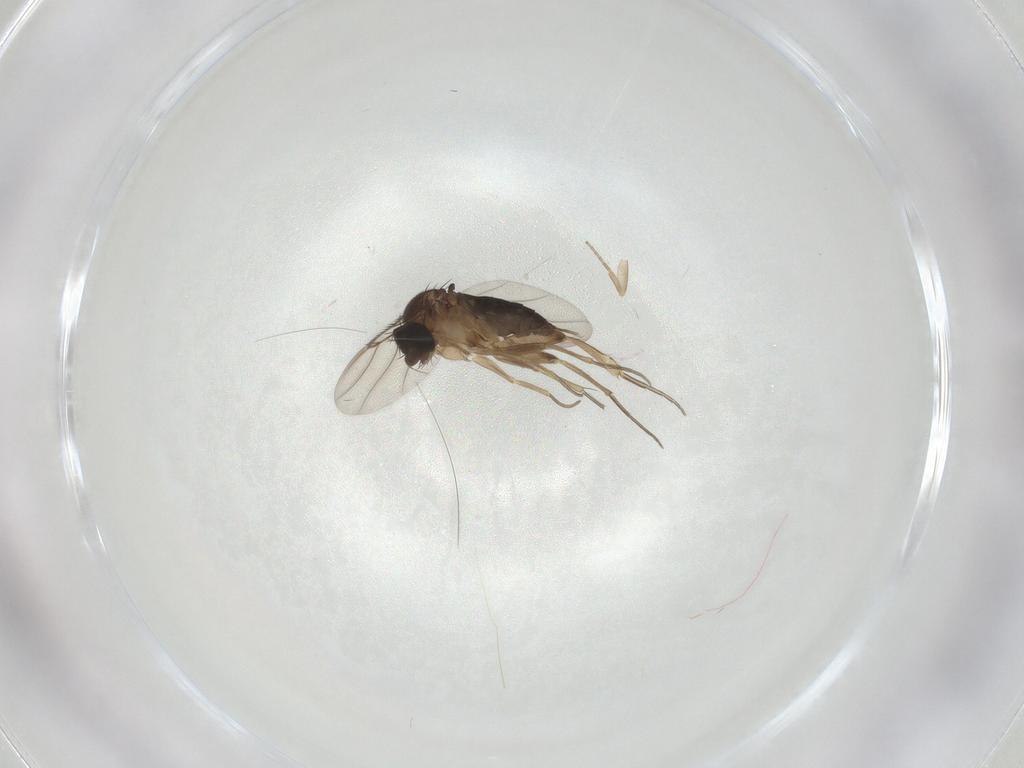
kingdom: Animalia
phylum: Arthropoda
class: Insecta
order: Diptera
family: Phoridae
